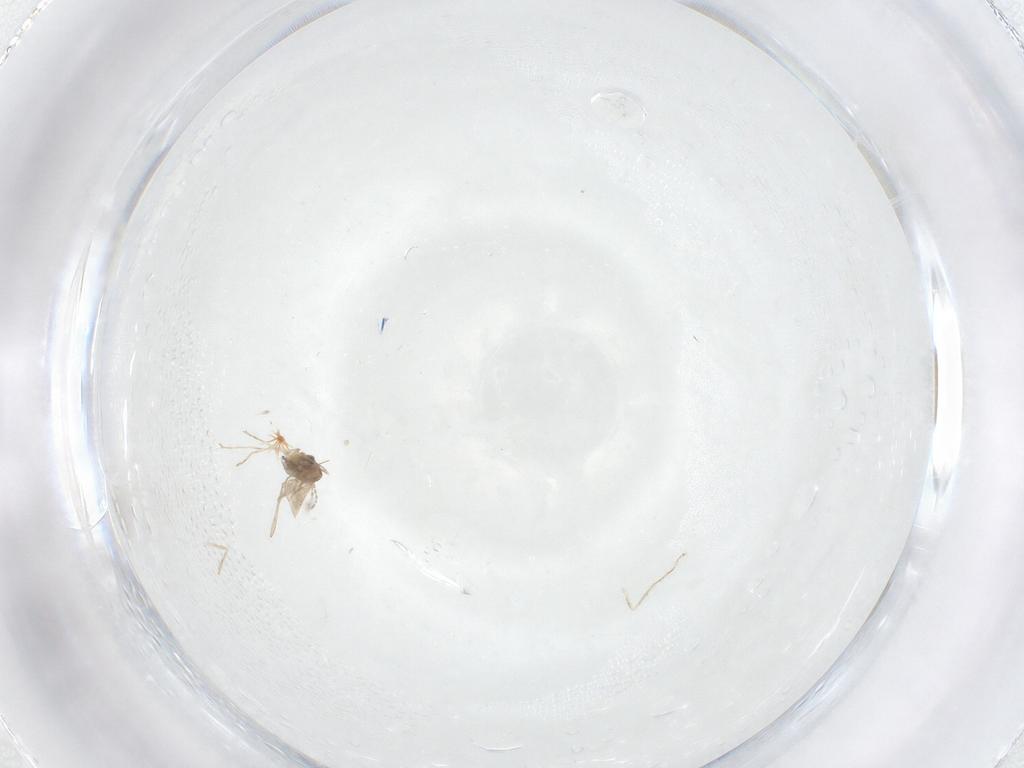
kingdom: Animalia
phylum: Arthropoda
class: Insecta
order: Diptera
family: Cecidomyiidae
